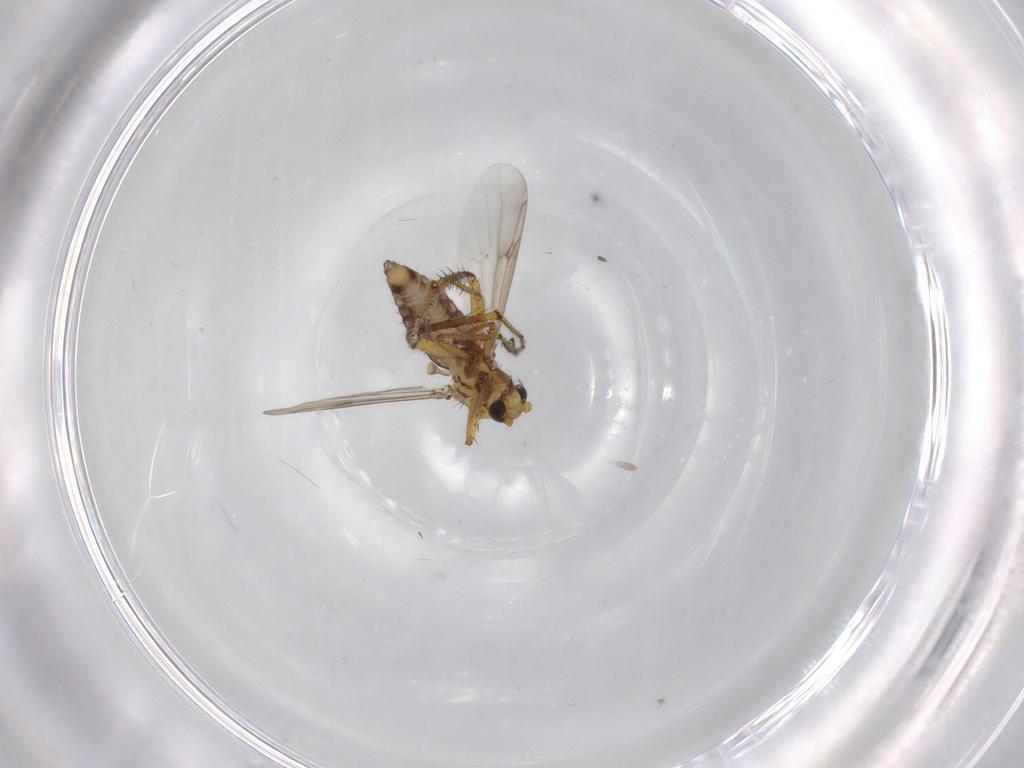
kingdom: Animalia
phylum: Arthropoda
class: Insecta
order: Diptera
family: Ceratopogonidae
